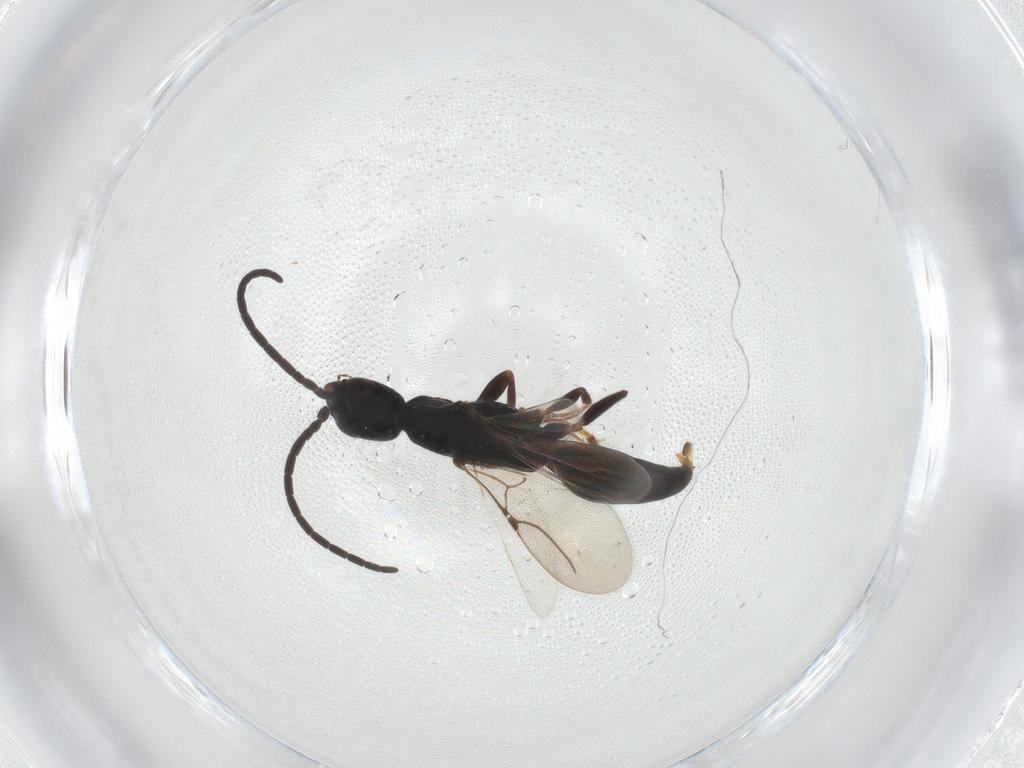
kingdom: Animalia
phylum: Arthropoda
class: Insecta
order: Hymenoptera
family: Bethylidae
